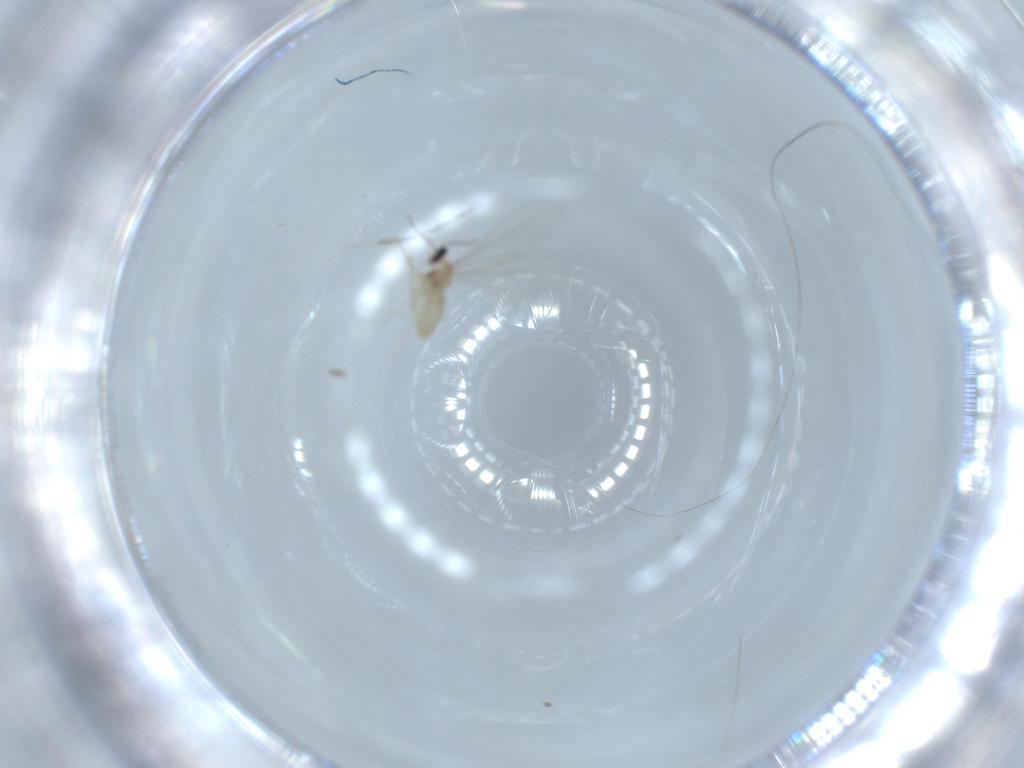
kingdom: Animalia
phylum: Arthropoda
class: Insecta
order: Diptera
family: Cecidomyiidae
